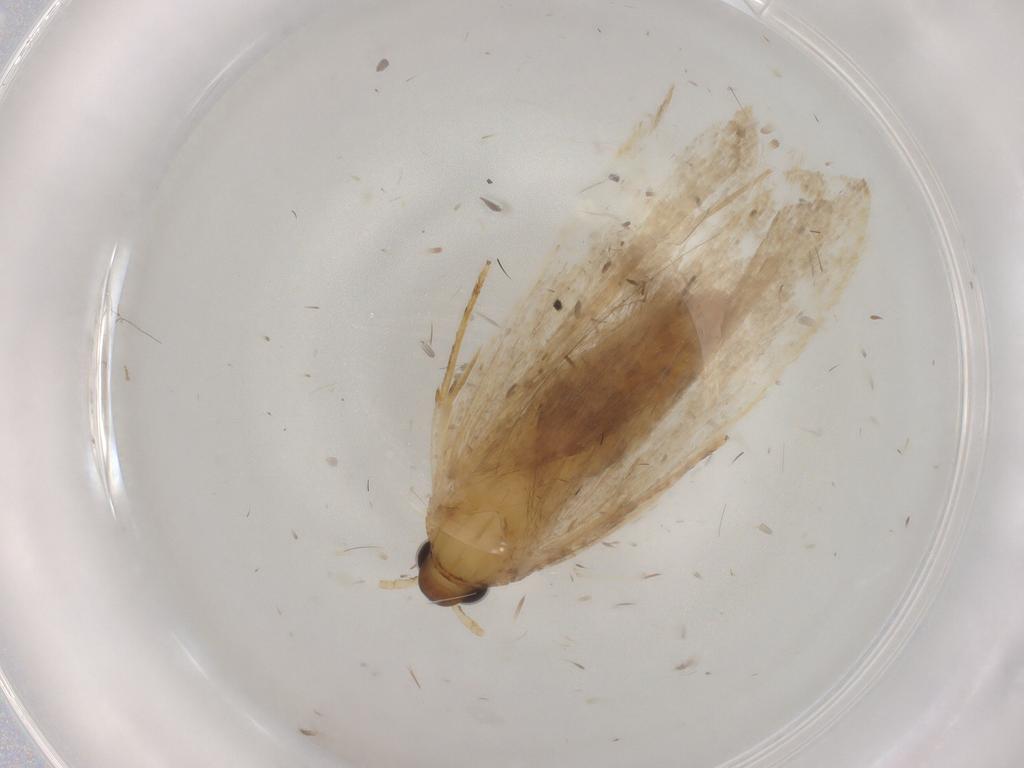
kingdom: Animalia
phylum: Arthropoda
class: Insecta
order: Lepidoptera
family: Lecithoceridae
